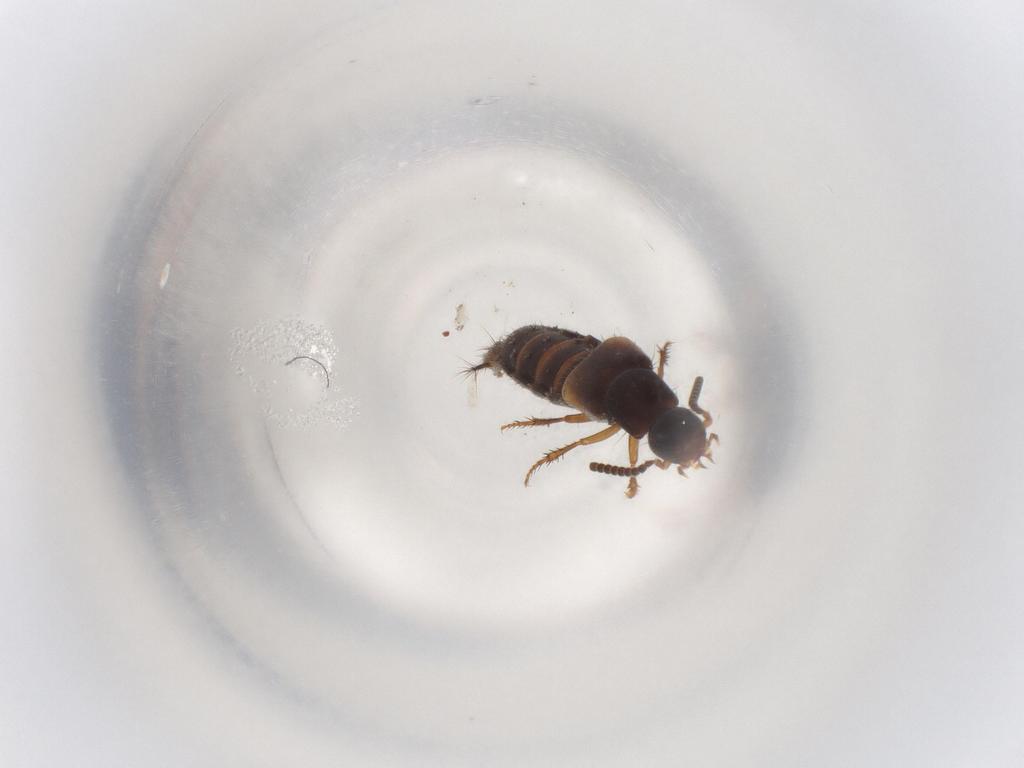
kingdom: Animalia
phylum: Arthropoda
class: Insecta
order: Coleoptera
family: Staphylinidae
